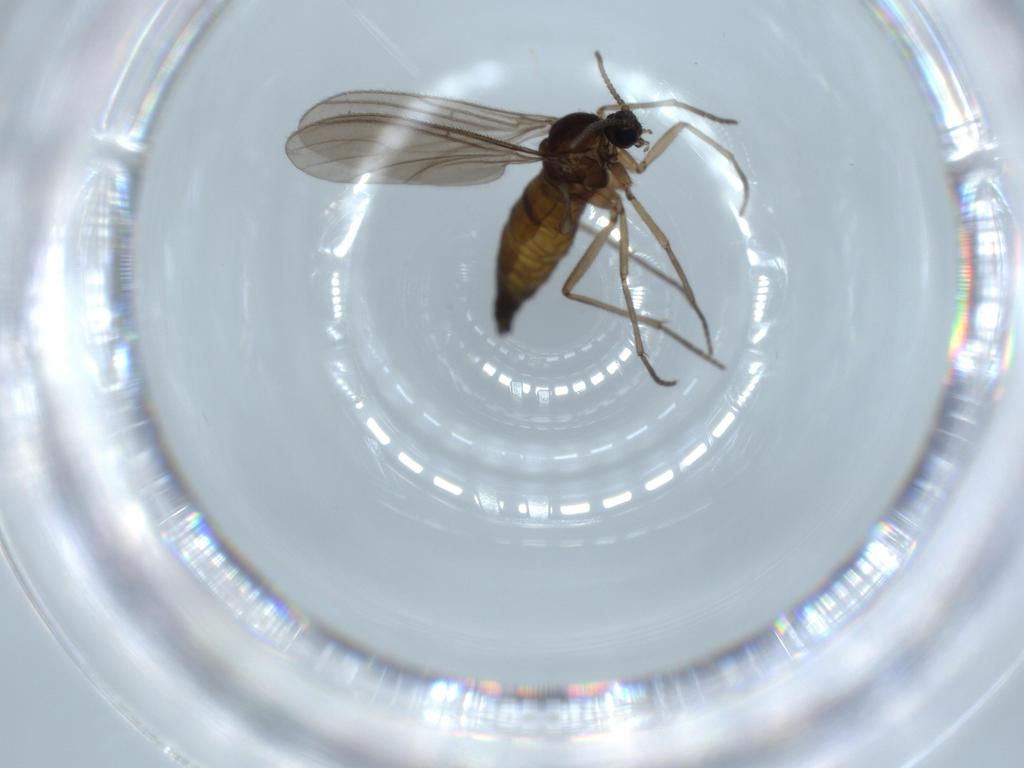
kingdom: Animalia
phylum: Arthropoda
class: Insecta
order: Diptera
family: Sciaridae
